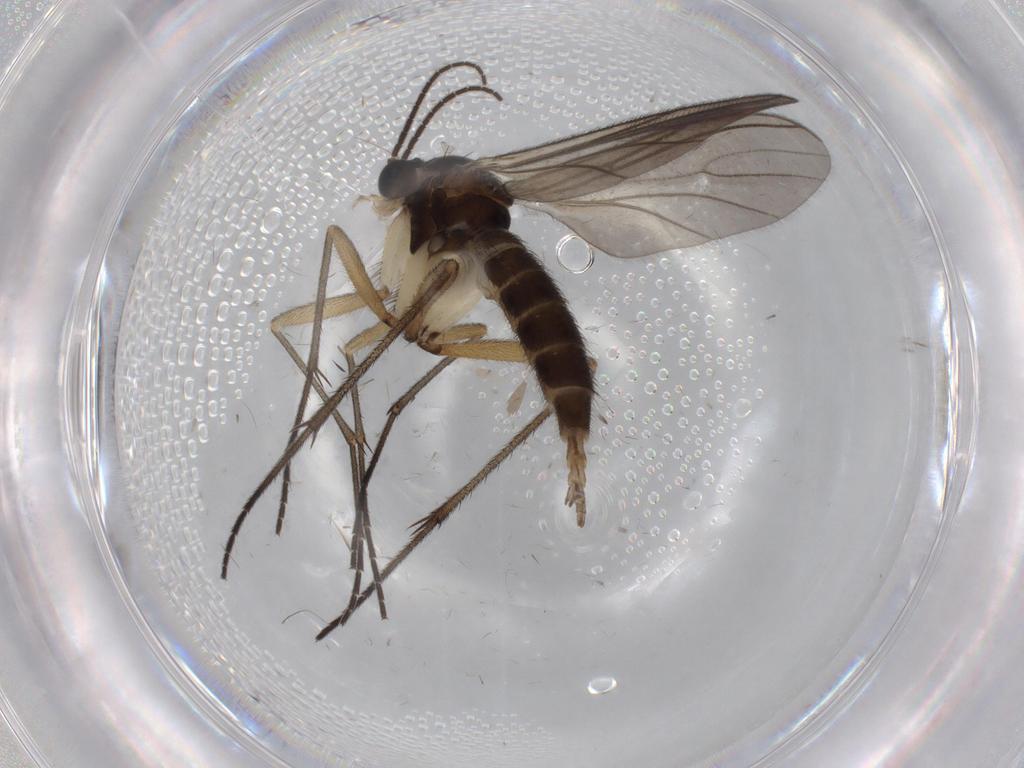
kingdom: Animalia
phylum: Arthropoda
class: Insecta
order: Diptera
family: Sciaridae
